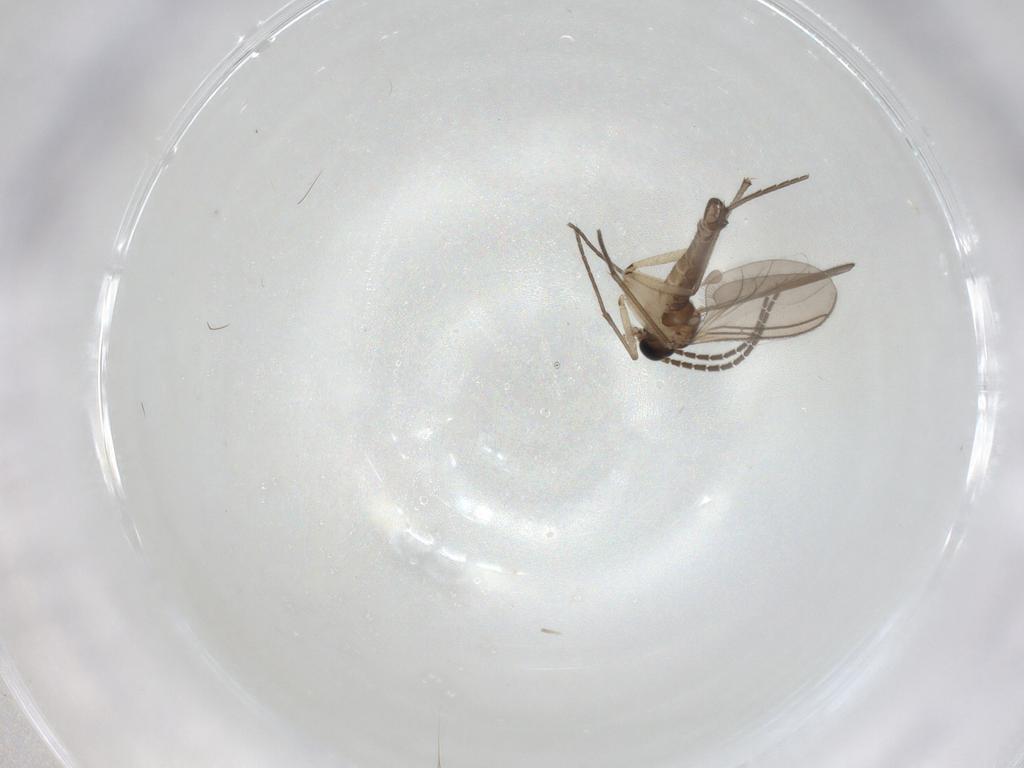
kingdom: Animalia
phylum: Arthropoda
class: Insecta
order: Diptera
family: Sciaridae
